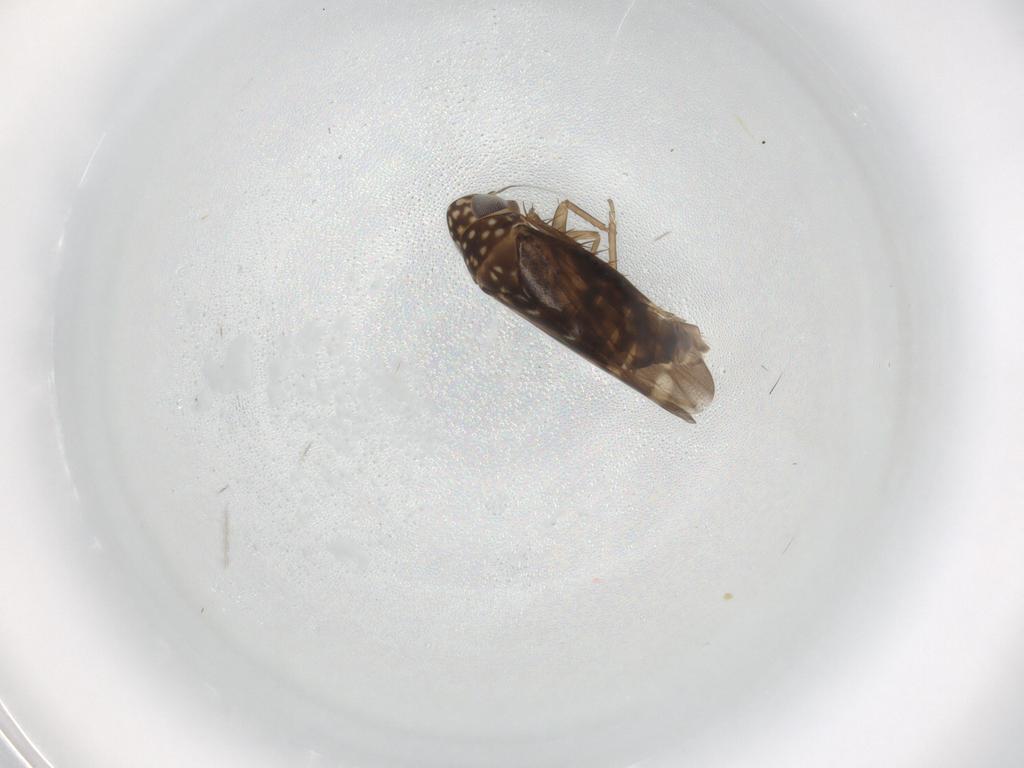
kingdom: Animalia
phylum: Arthropoda
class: Insecta
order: Hemiptera
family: Cicadellidae
